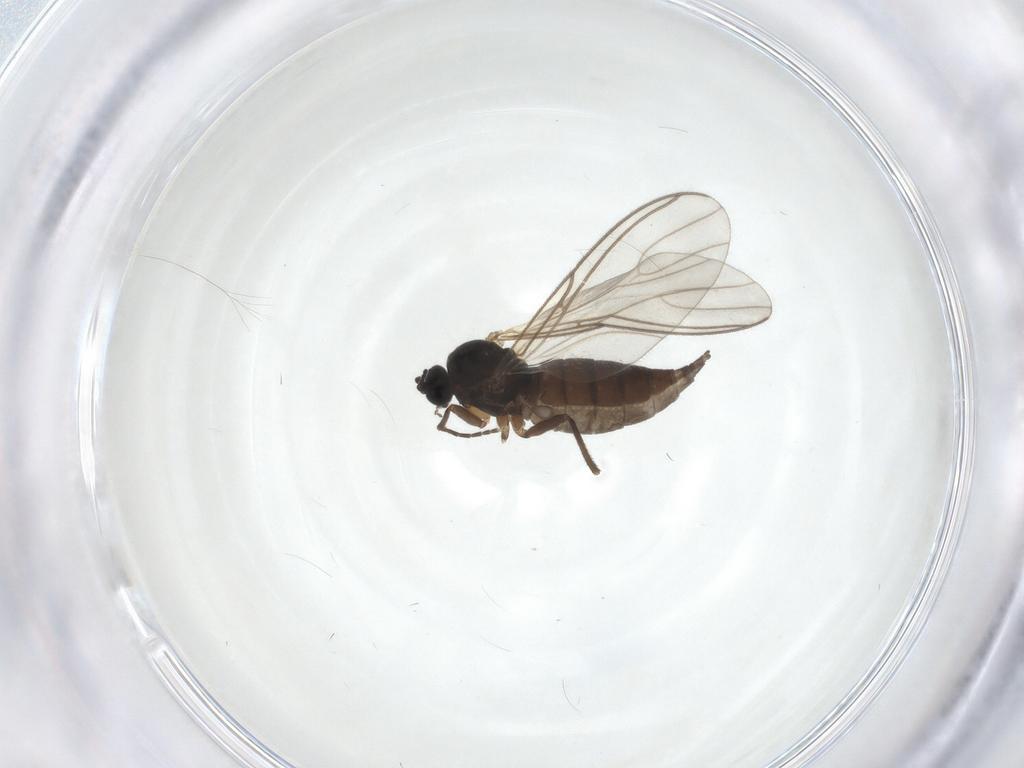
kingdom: Animalia
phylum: Arthropoda
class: Insecta
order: Diptera
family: Sciaridae
